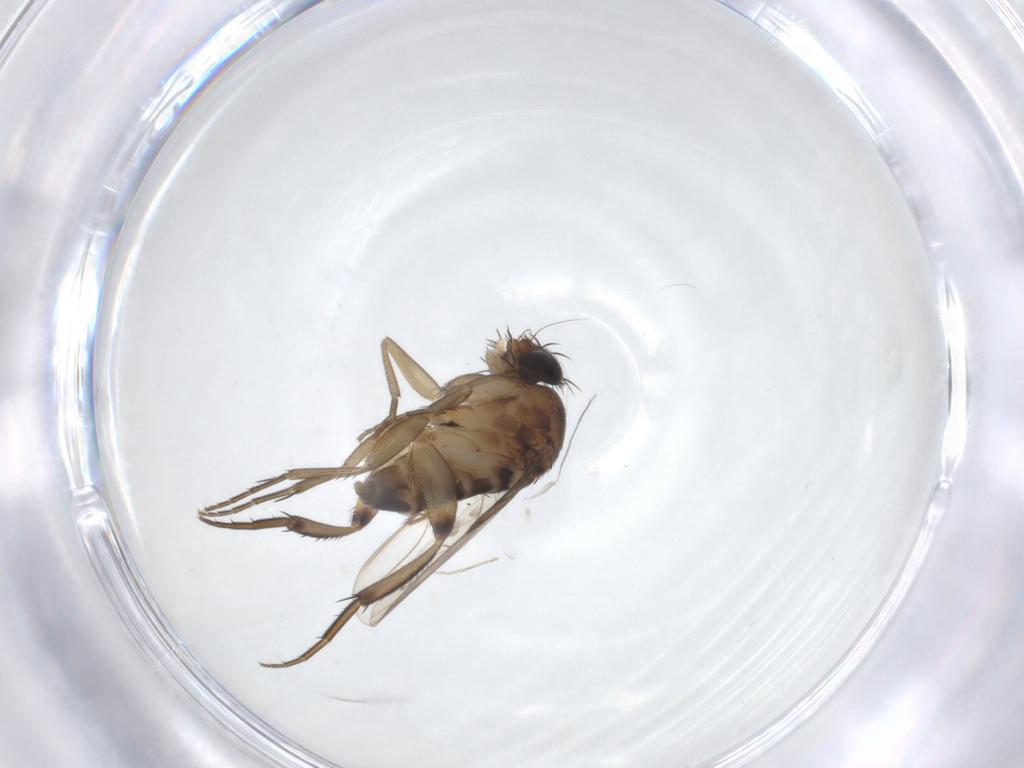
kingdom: Animalia
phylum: Arthropoda
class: Insecta
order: Diptera
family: Phoridae
